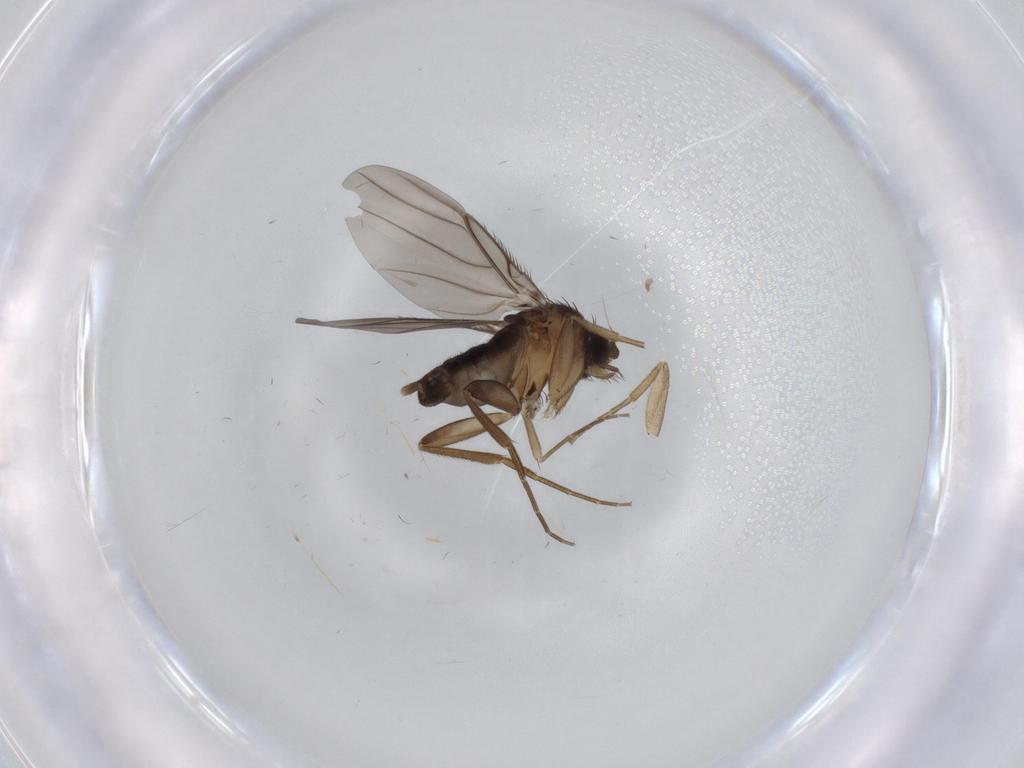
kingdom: Animalia
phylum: Arthropoda
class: Insecta
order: Diptera
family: Phoridae
